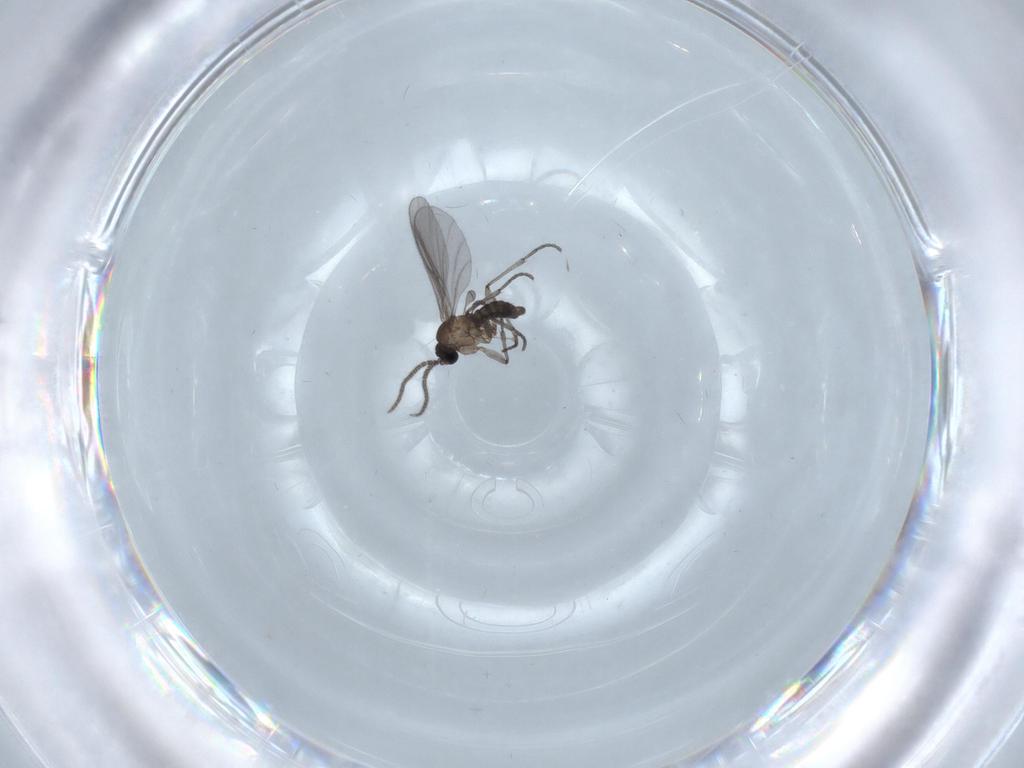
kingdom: Animalia
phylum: Arthropoda
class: Insecta
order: Diptera
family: Sciaridae
